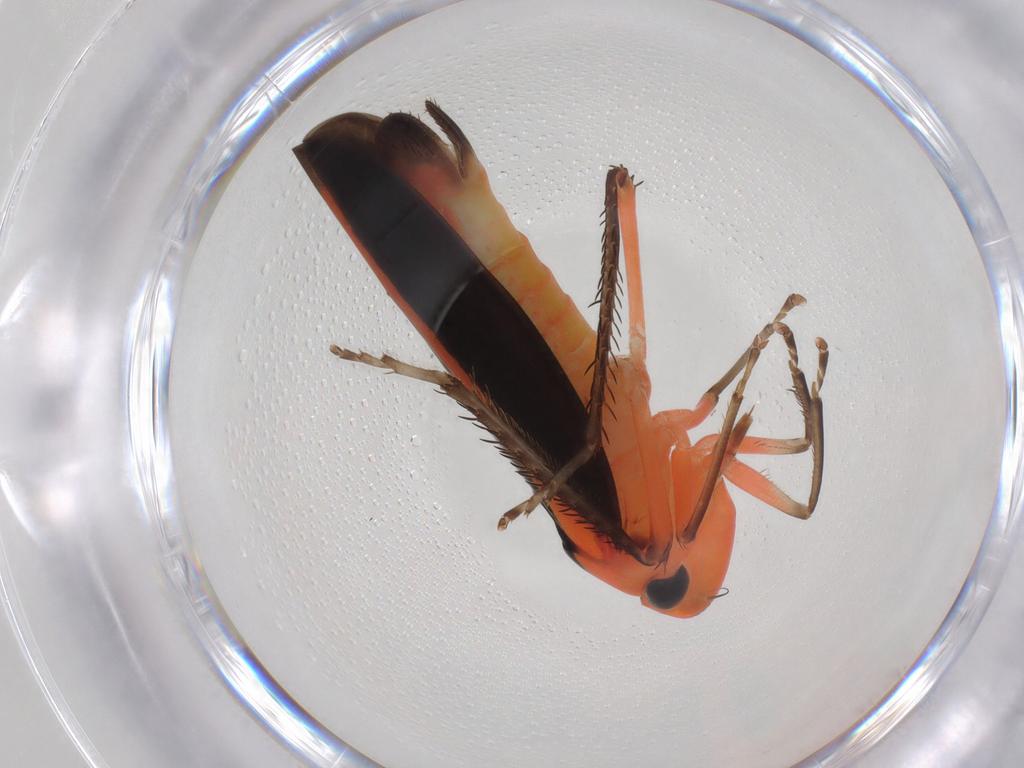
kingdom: Animalia
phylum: Arthropoda
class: Insecta
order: Hemiptera
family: Cicadellidae
